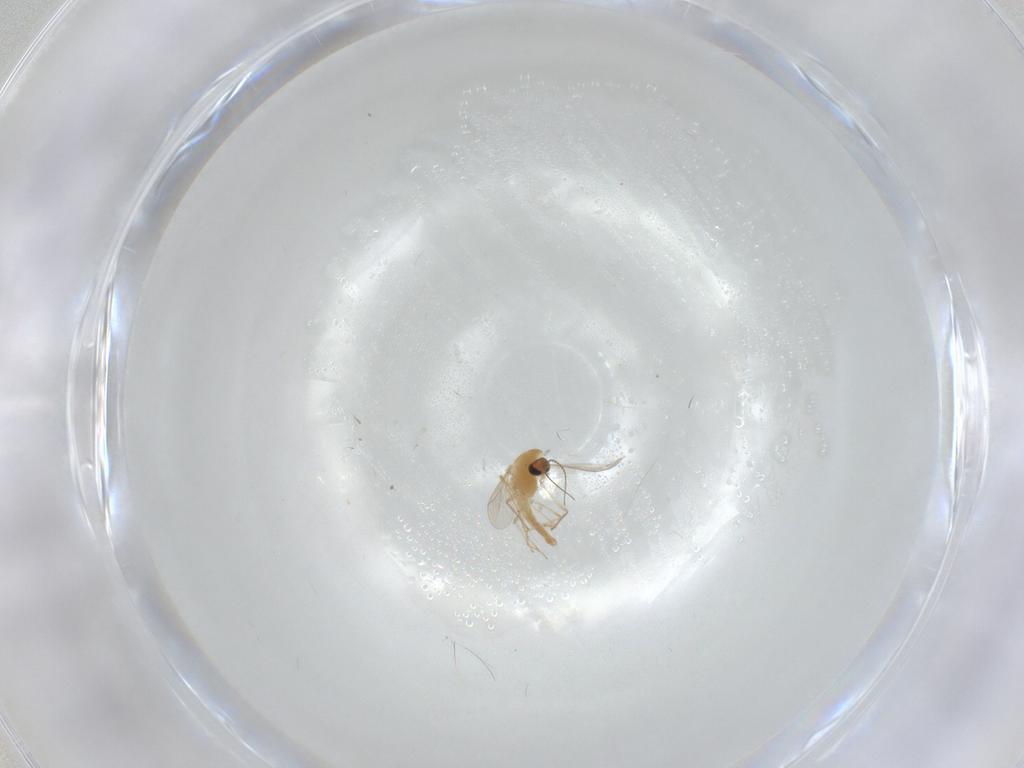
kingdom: Animalia
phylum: Arthropoda
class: Insecta
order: Diptera
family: Chironomidae
